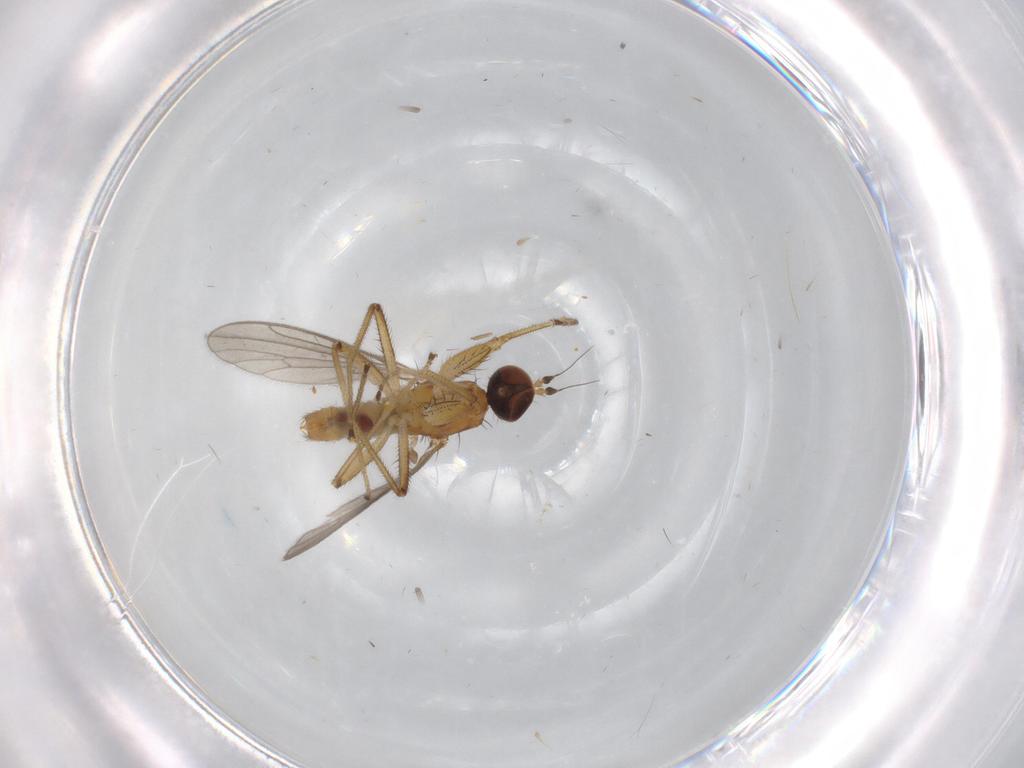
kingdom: Animalia
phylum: Arthropoda
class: Insecta
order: Diptera
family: Empididae
